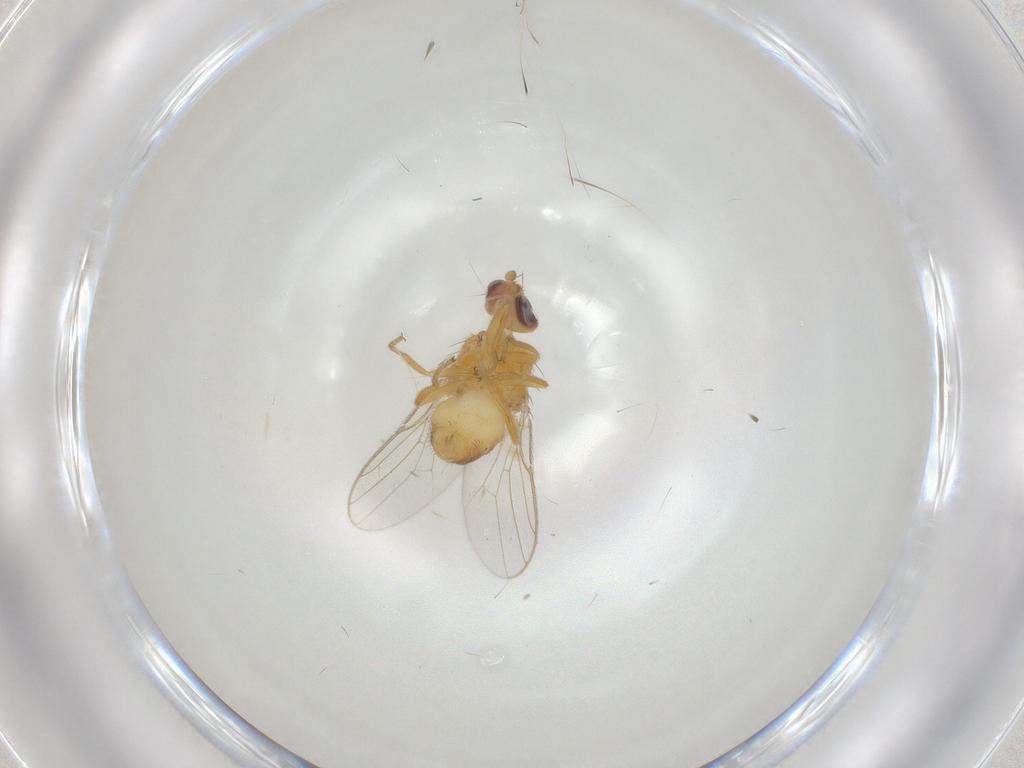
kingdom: Animalia
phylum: Arthropoda
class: Insecta
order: Diptera
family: Chloropidae
